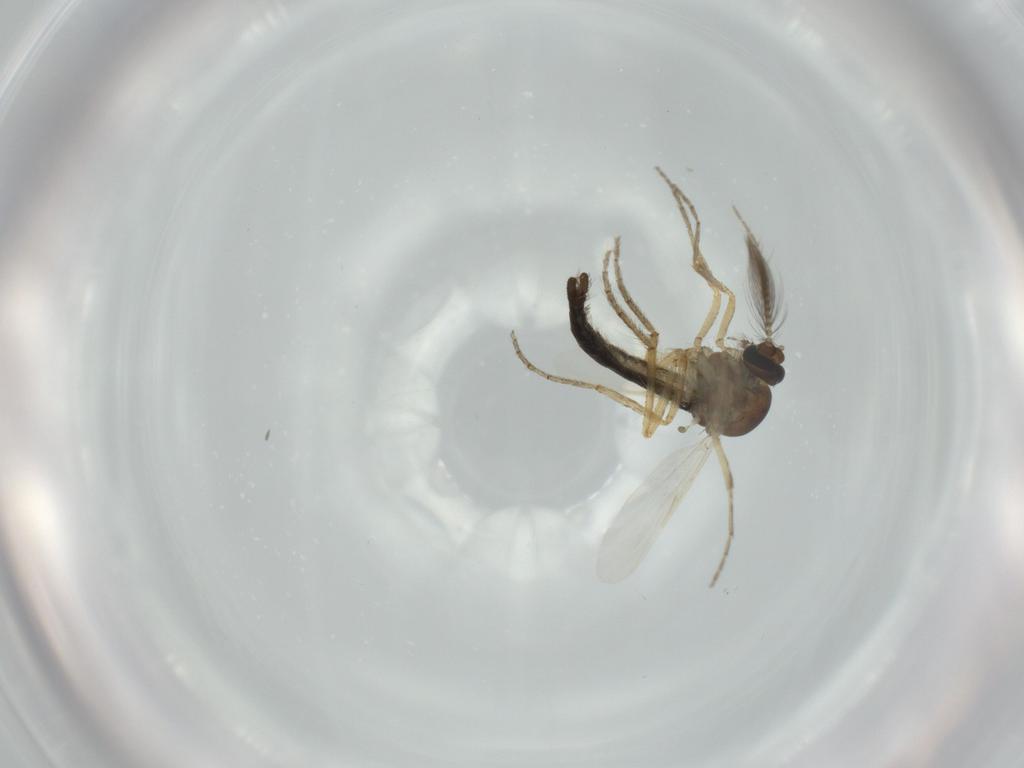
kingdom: Animalia
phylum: Arthropoda
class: Insecta
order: Diptera
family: Ceratopogonidae
